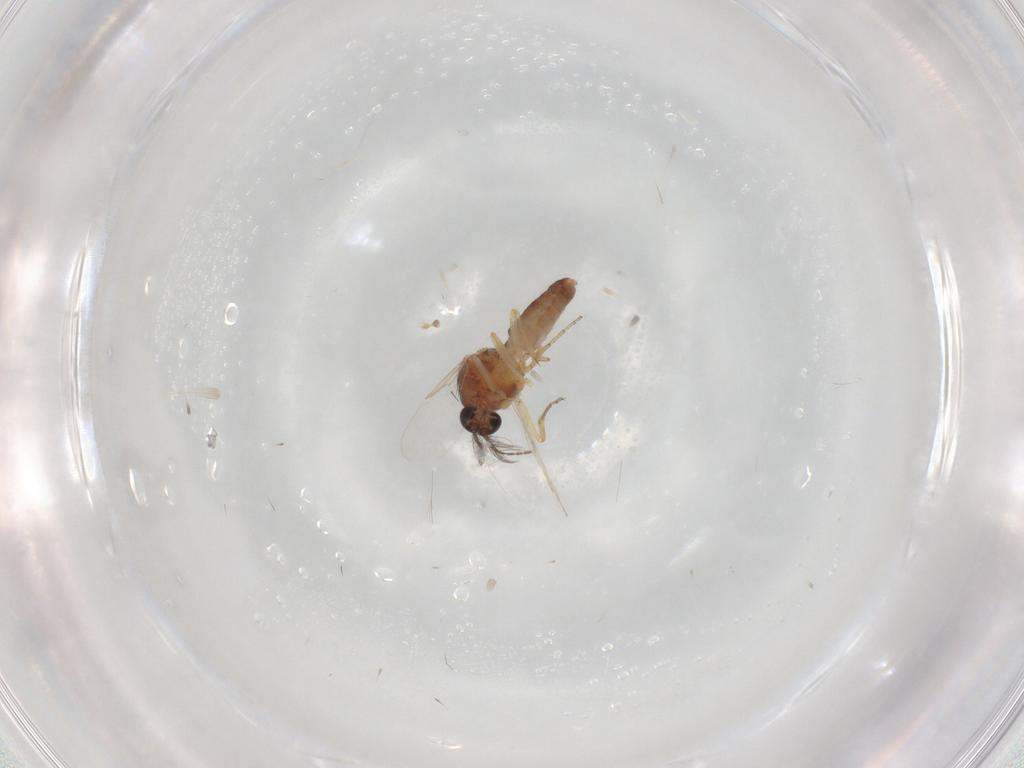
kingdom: Animalia
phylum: Arthropoda
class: Insecta
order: Diptera
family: Ceratopogonidae
